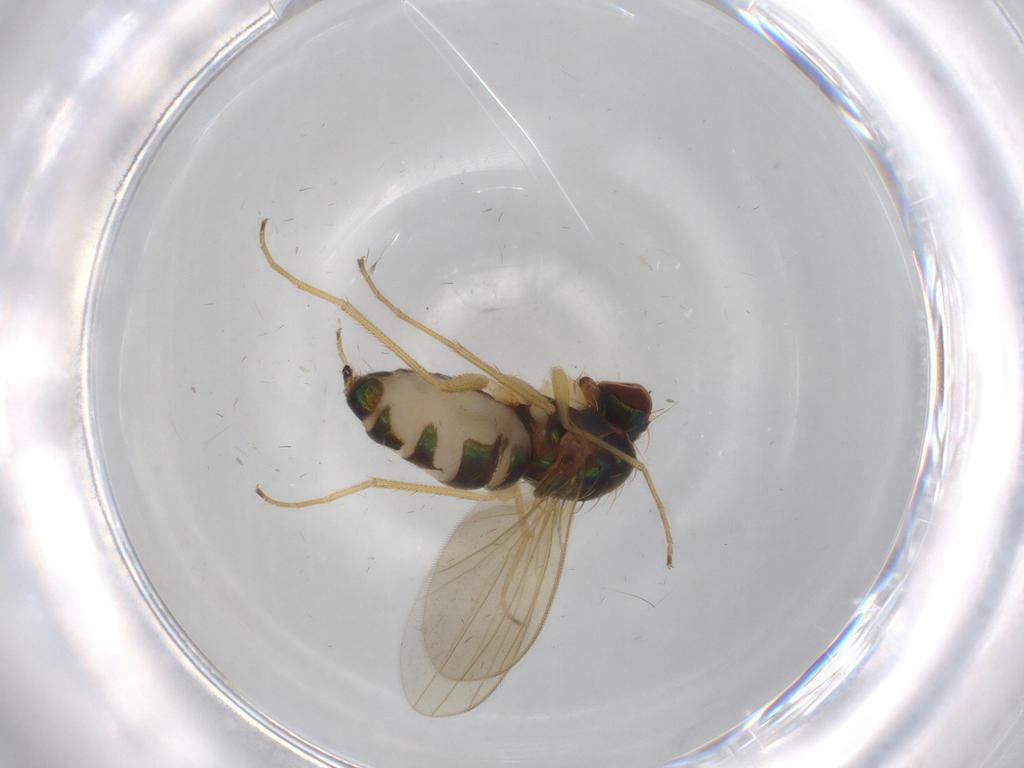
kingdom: Animalia
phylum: Arthropoda
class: Insecta
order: Diptera
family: Dolichopodidae
